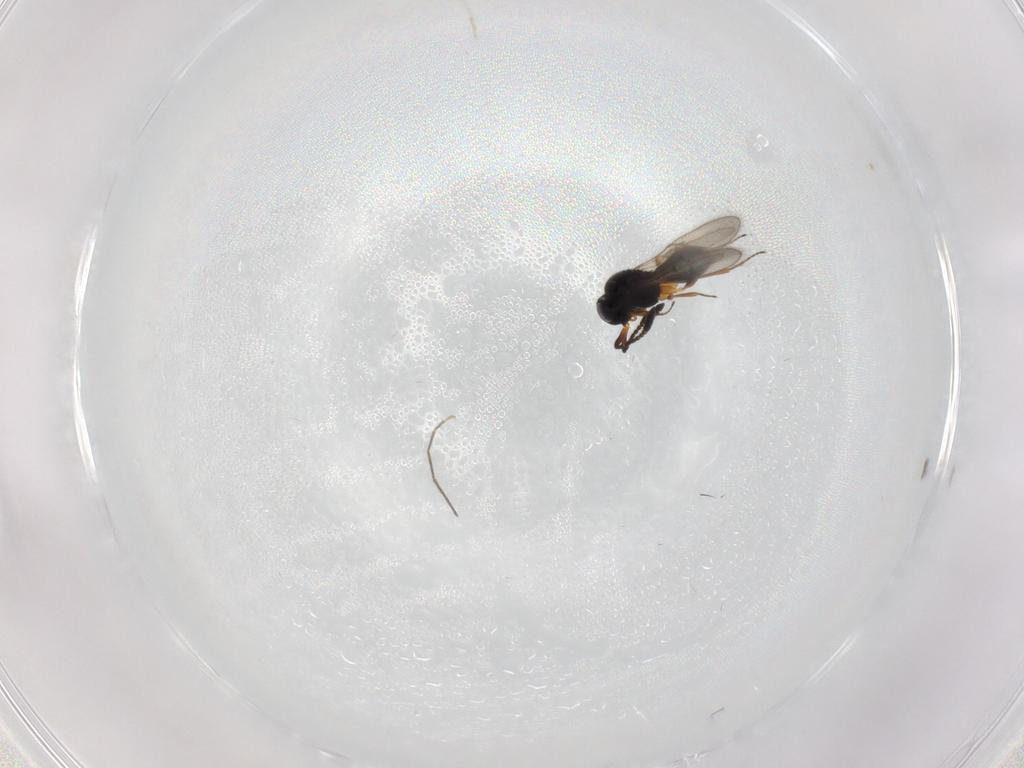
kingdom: Animalia
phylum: Arthropoda
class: Insecta
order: Hymenoptera
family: Scelionidae
